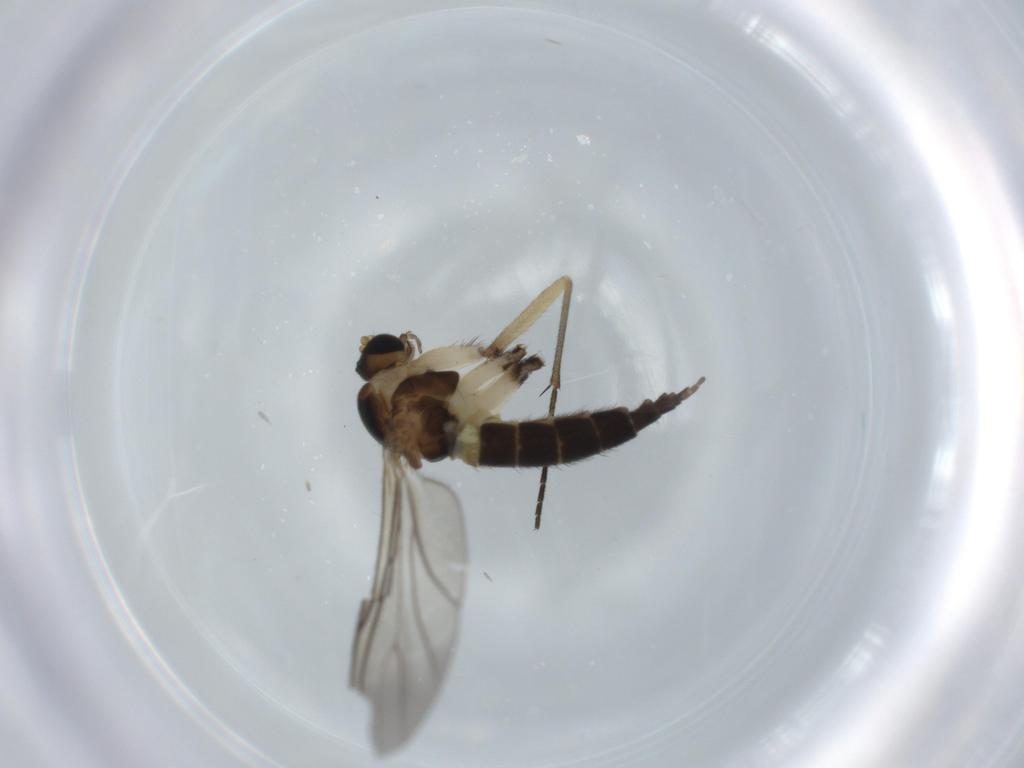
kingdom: Animalia
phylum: Arthropoda
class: Insecta
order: Diptera
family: Sciaridae
